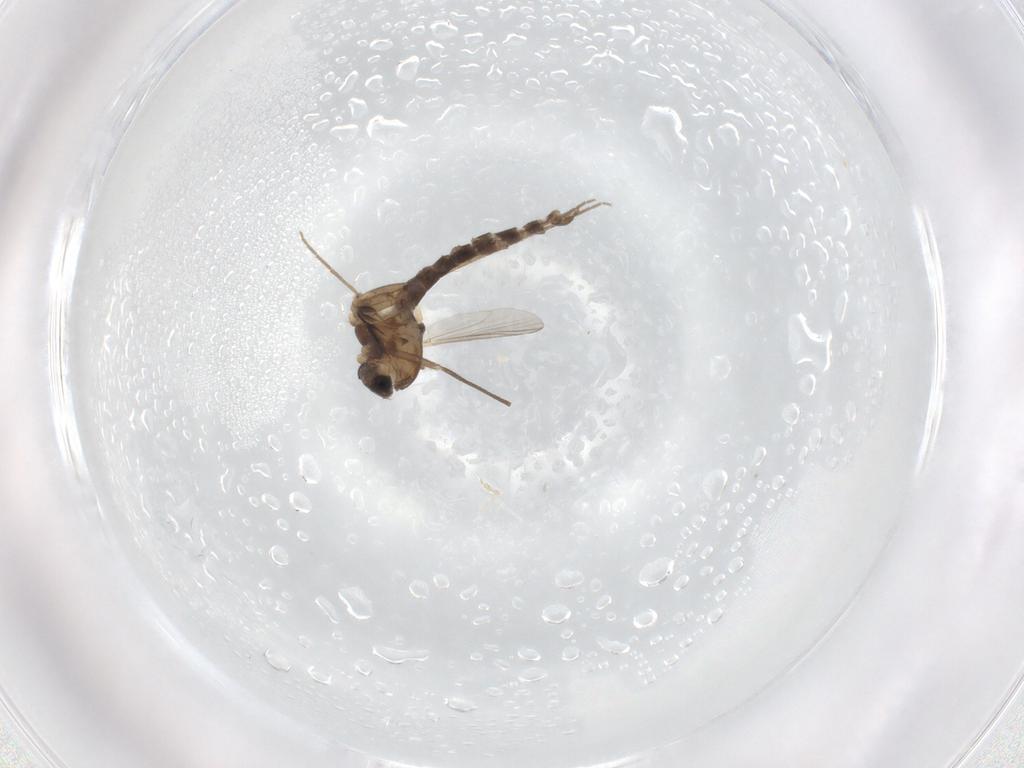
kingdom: Animalia
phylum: Arthropoda
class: Insecta
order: Diptera
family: Chironomidae
